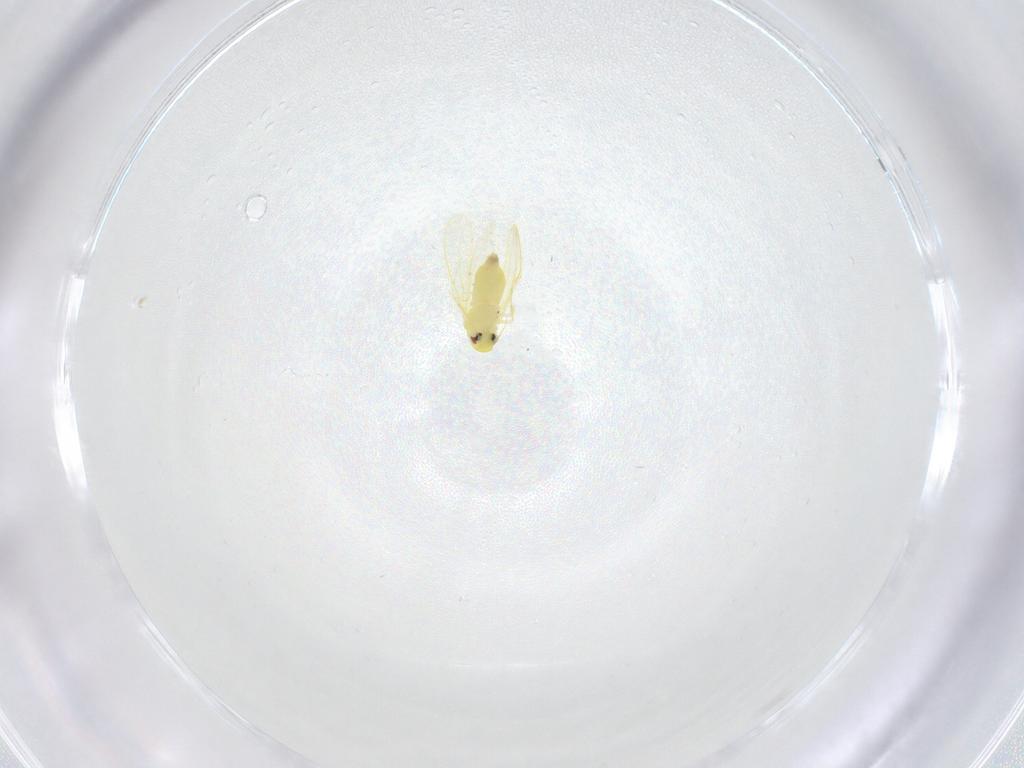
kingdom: Animalia
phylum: Arthropoda
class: Insecta
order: Hemiptera
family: Aleyrodidae
